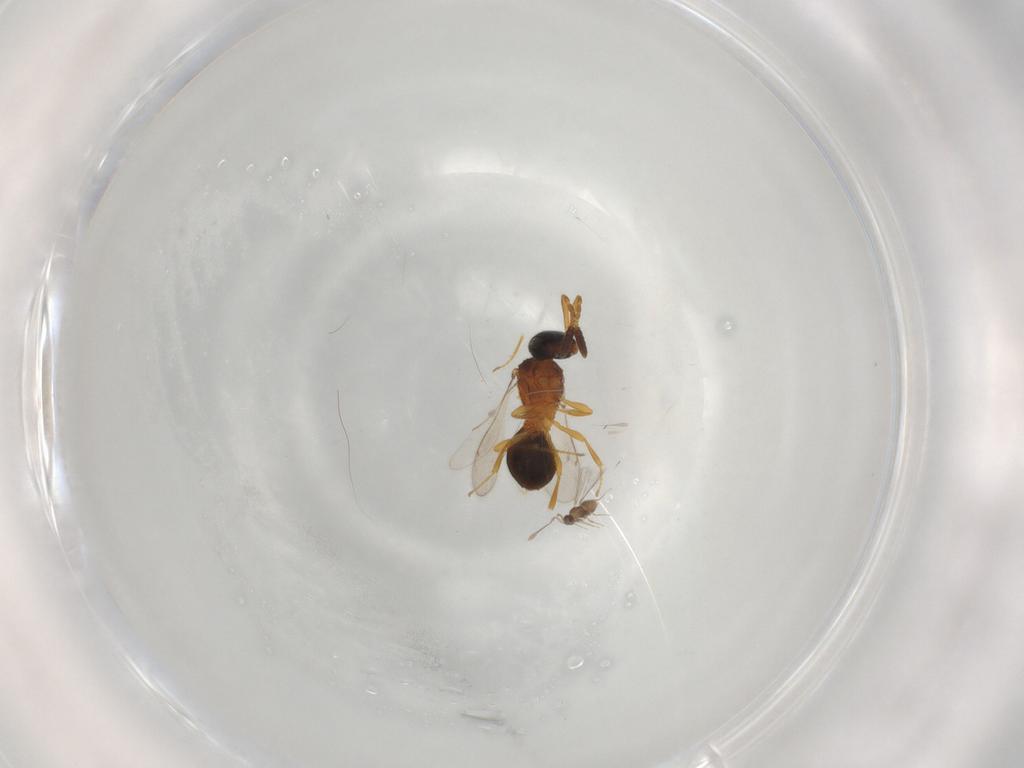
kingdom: Animalia
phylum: Arthropoda
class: Insecta
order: Hymenoptera
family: Scelionidae
